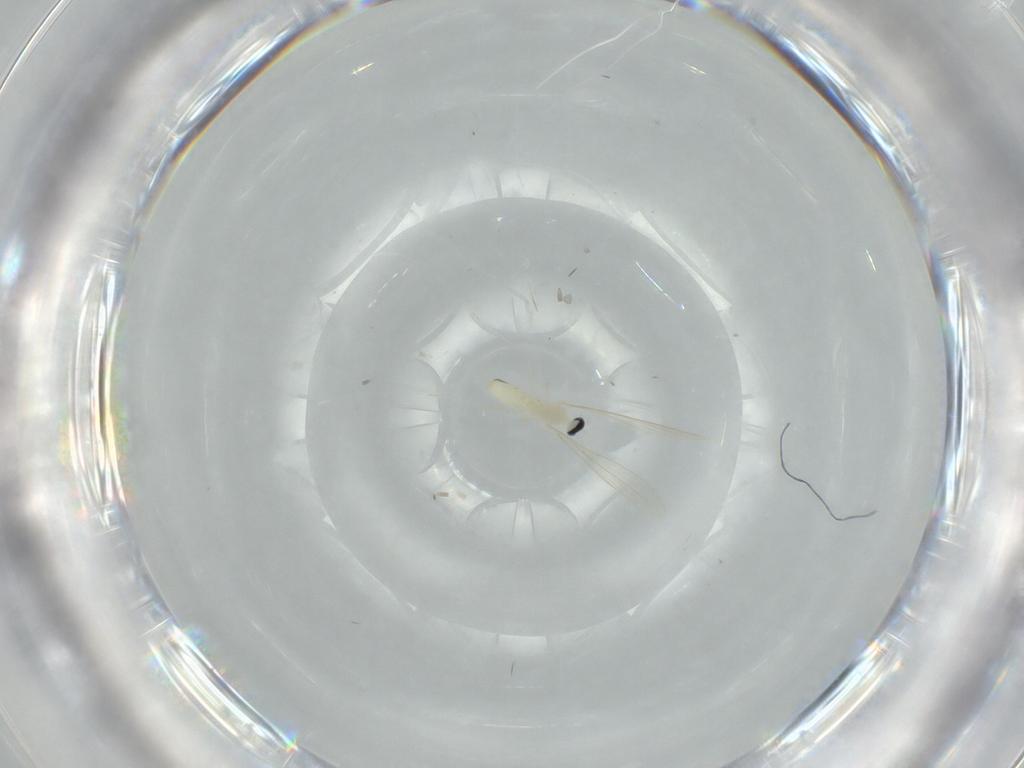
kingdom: Animalia
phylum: Arthropoda
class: Insecta
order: Diptera
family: Cecidomyiidae
